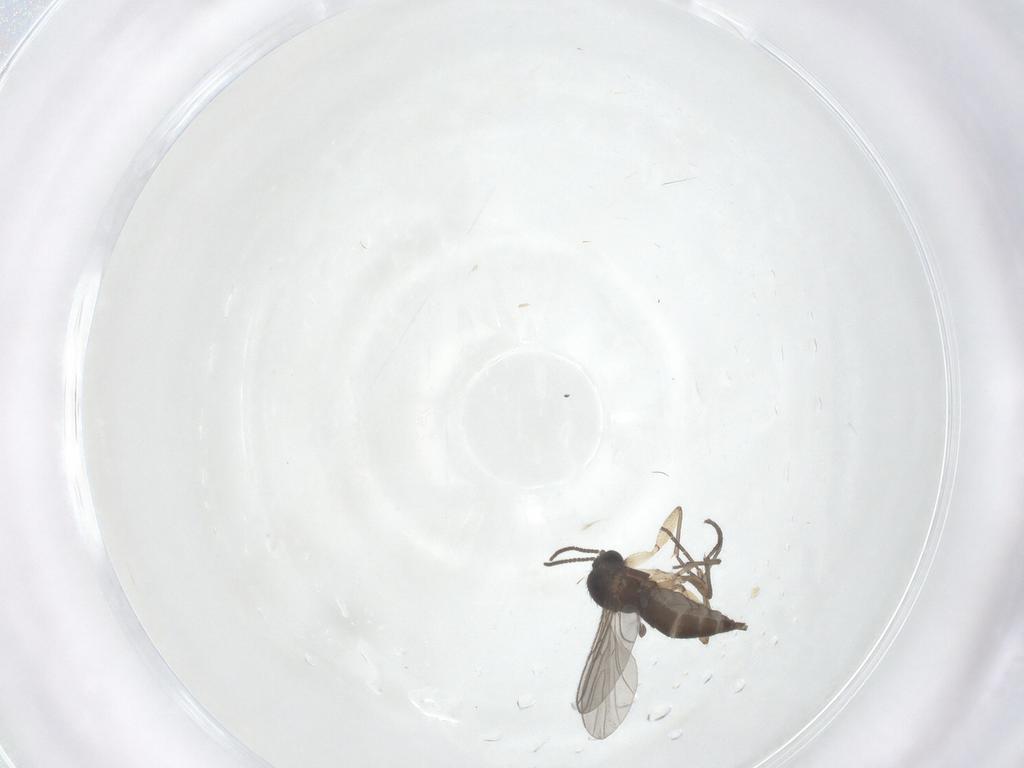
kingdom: Animalia
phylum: Arthropoda
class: Insecta
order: Diptera
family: Sciaridae
